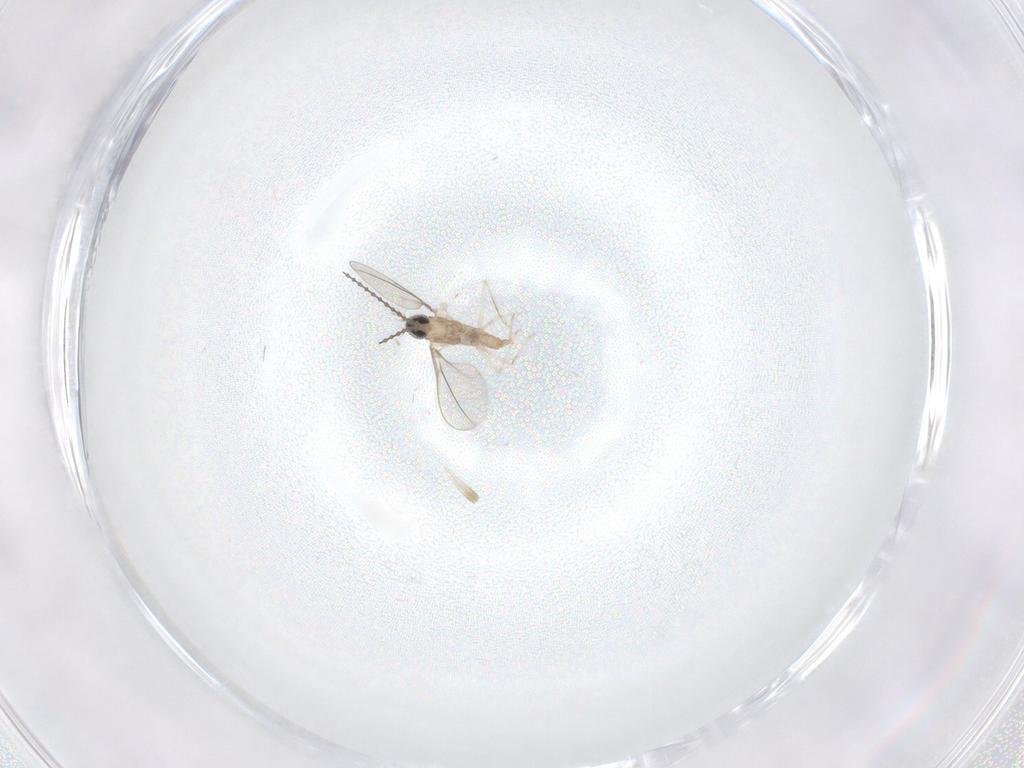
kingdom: Animalia
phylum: Arthropoda
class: Insecta
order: Diptera
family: Cecidomyiidae
